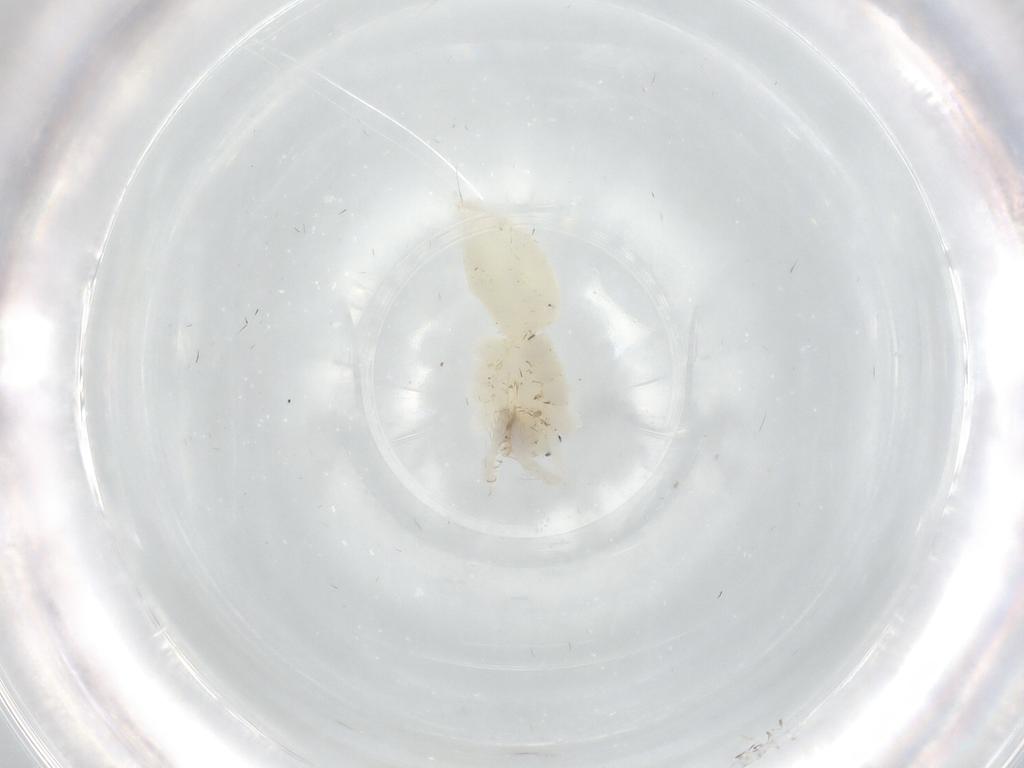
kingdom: Animalia
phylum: Arthropoda
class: Arachnida
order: Araneae
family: Anyphaenidae
